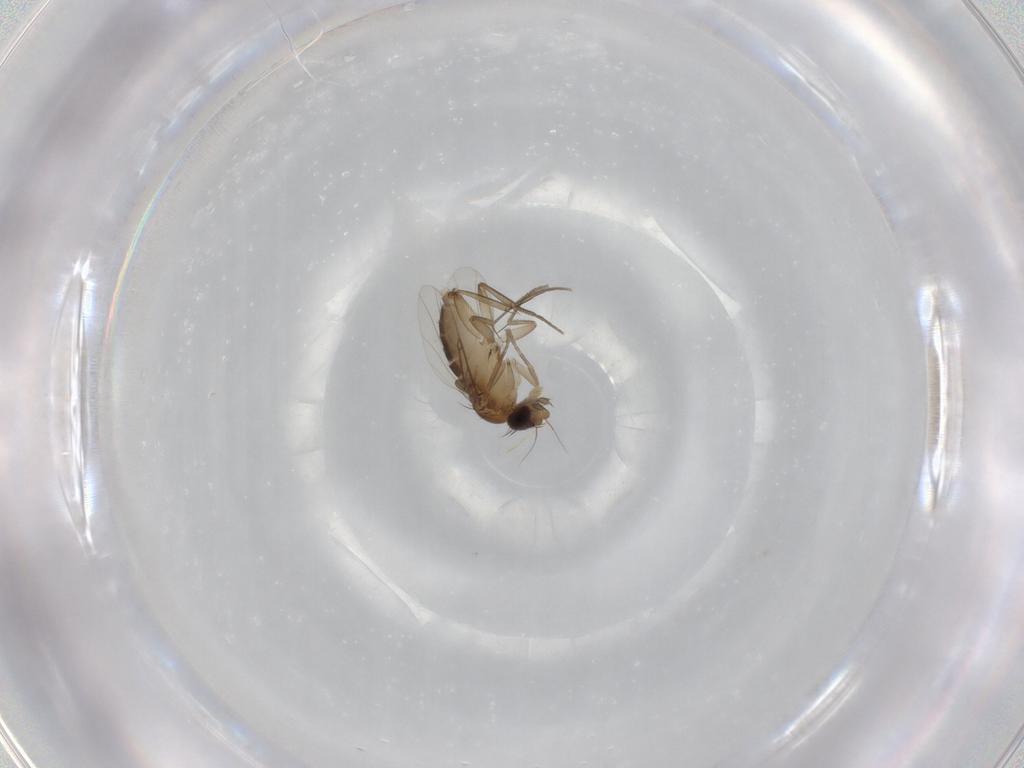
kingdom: Animalia
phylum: Arthropoda
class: Insecta
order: Diptera
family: Phoridae
